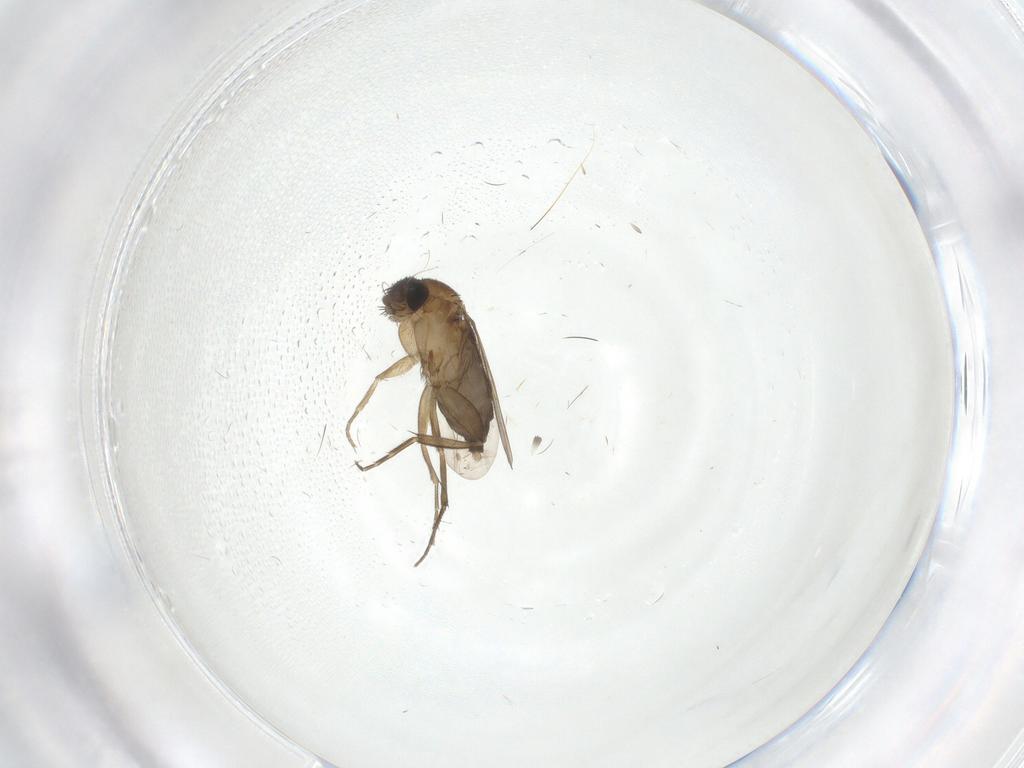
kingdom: Animalia
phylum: Arthropoda
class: Insecta
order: Diptera
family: Phoridae
